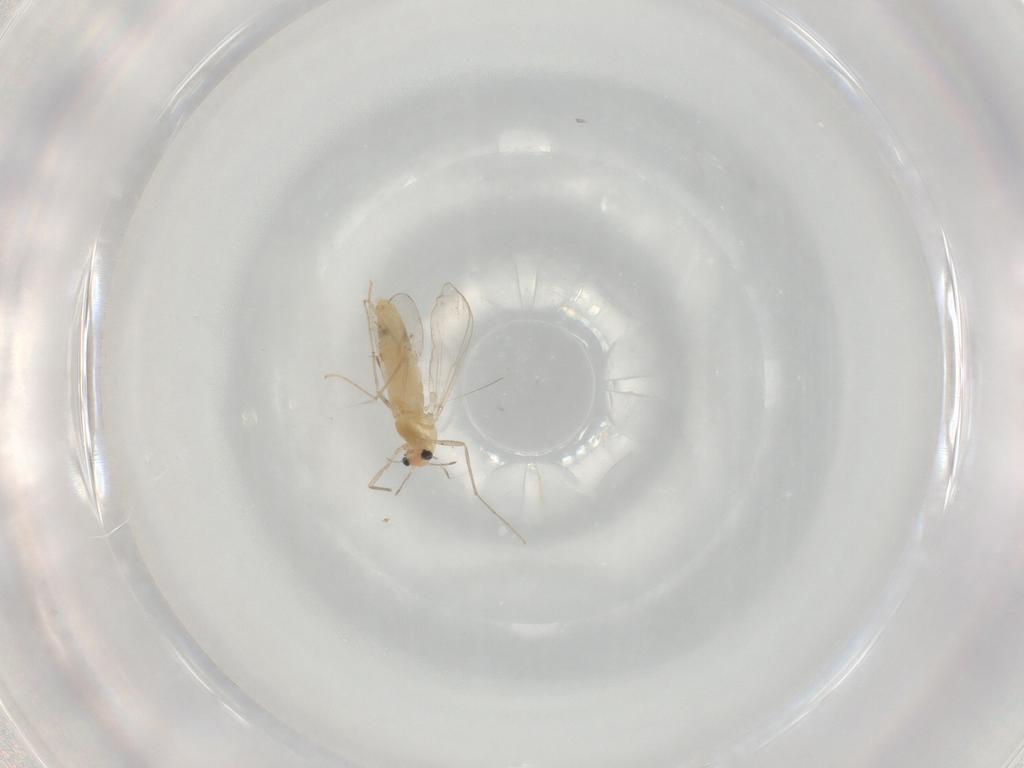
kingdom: Animalia
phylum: Arthropoda
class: Insecta
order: Diptera
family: Chironomidae
